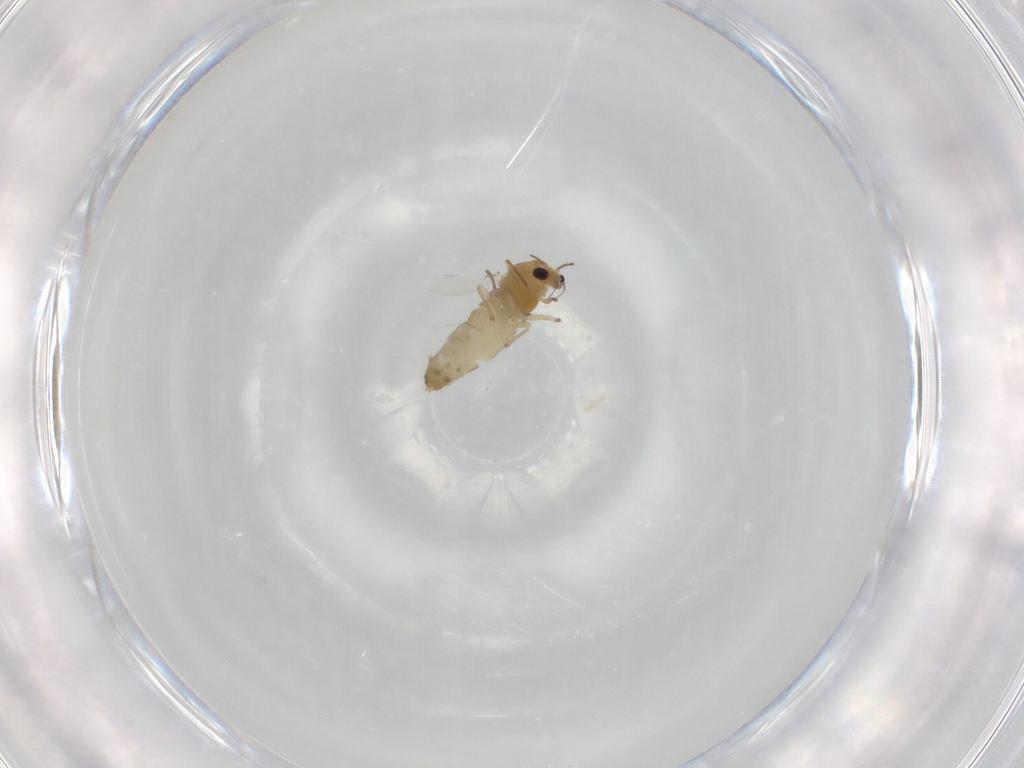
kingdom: Animalia
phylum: Arthropoda
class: Insecta
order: Diptera
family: Chironomidae
